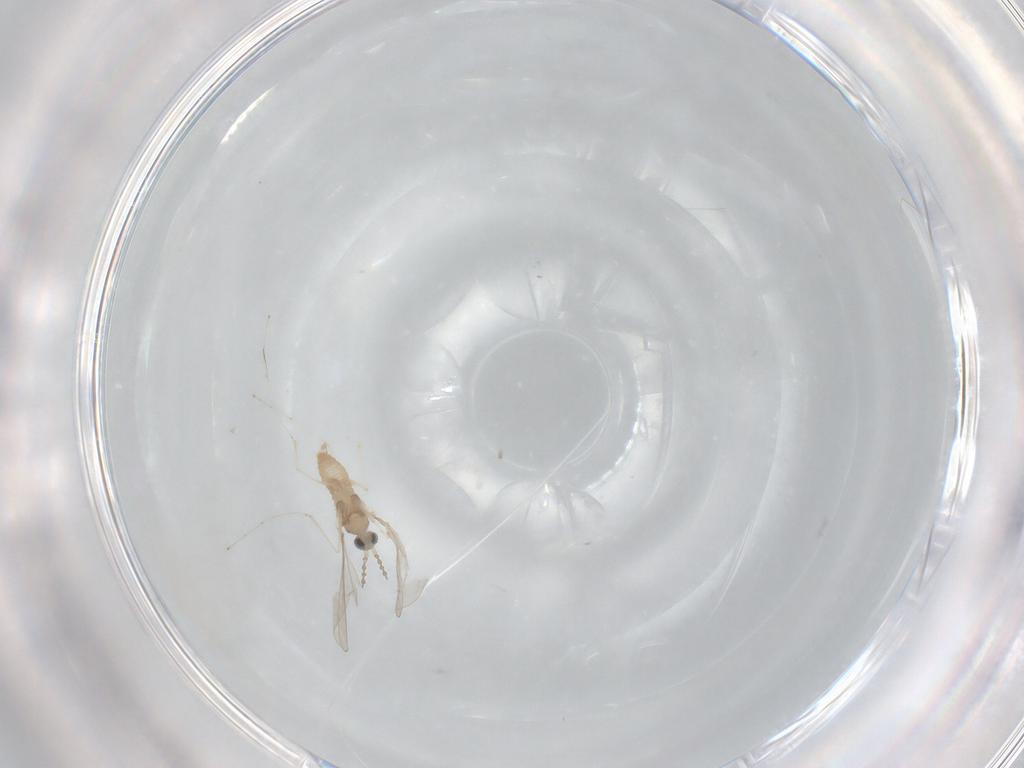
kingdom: Animalia
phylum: Arthropoda
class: Insecta
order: Diptera
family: Cecidomyiidae
